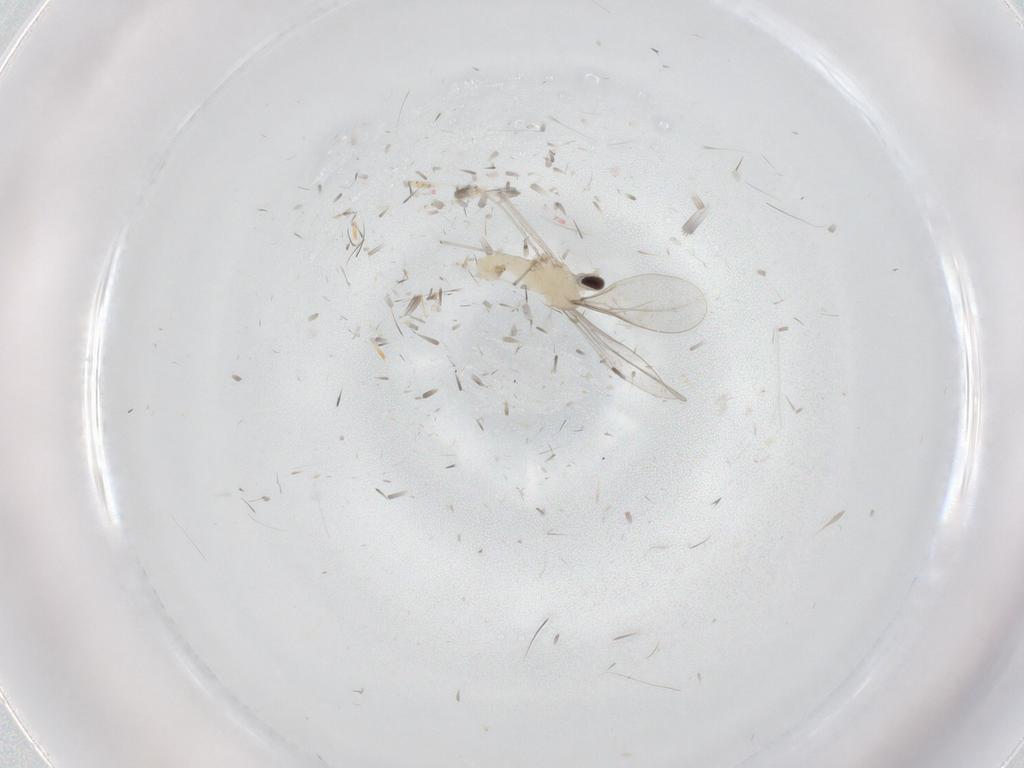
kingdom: Animalia
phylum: Arthropoda
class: Insecta
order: Diptera
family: Cecidomyiidae
